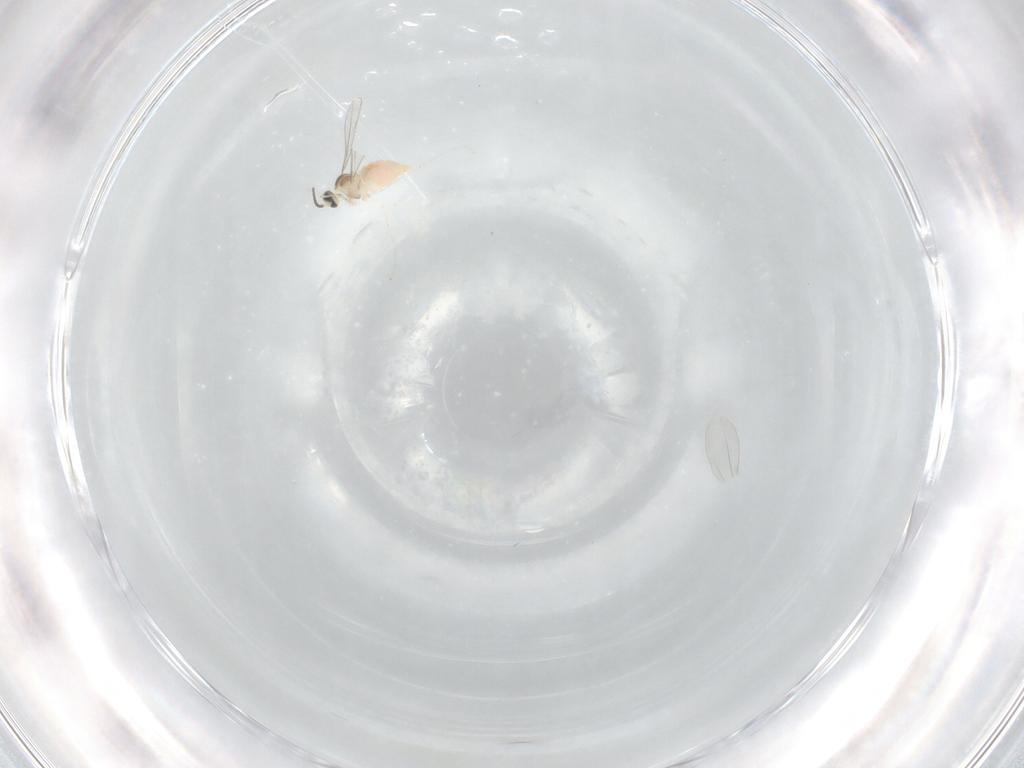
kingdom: Animalia
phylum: Arthropoda
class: Insecta
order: Diptera
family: Cecidomyiidae
